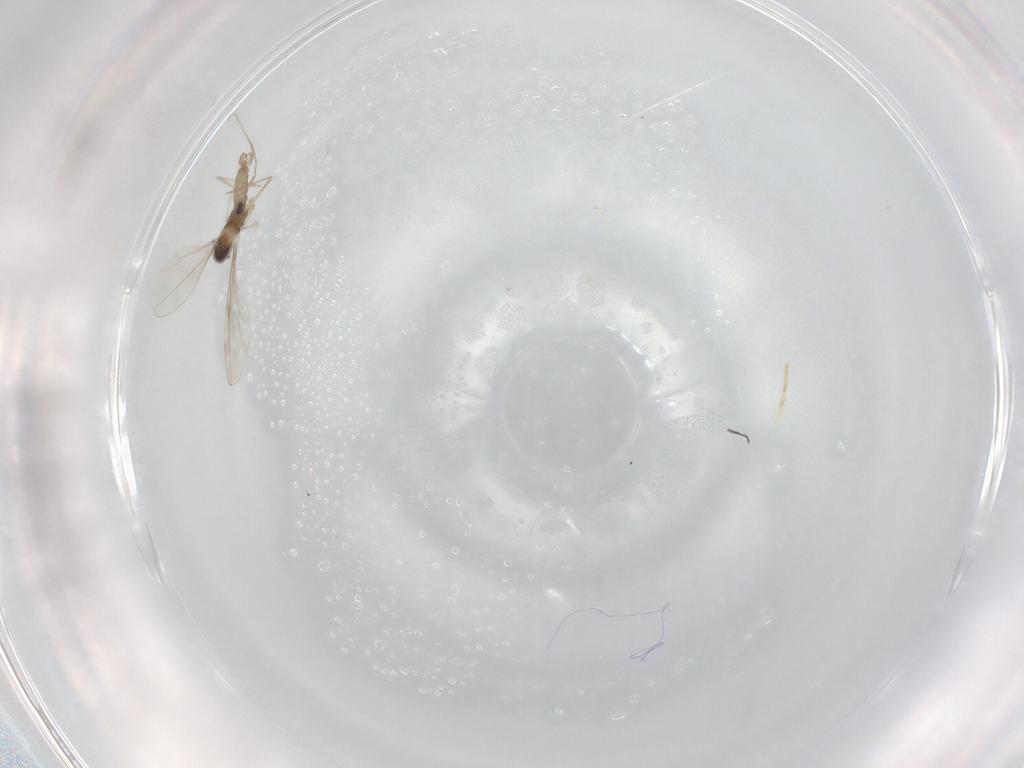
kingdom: Animalia
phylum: Arthropoda
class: Insecta
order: Diptera
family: Cecidomyiidae
